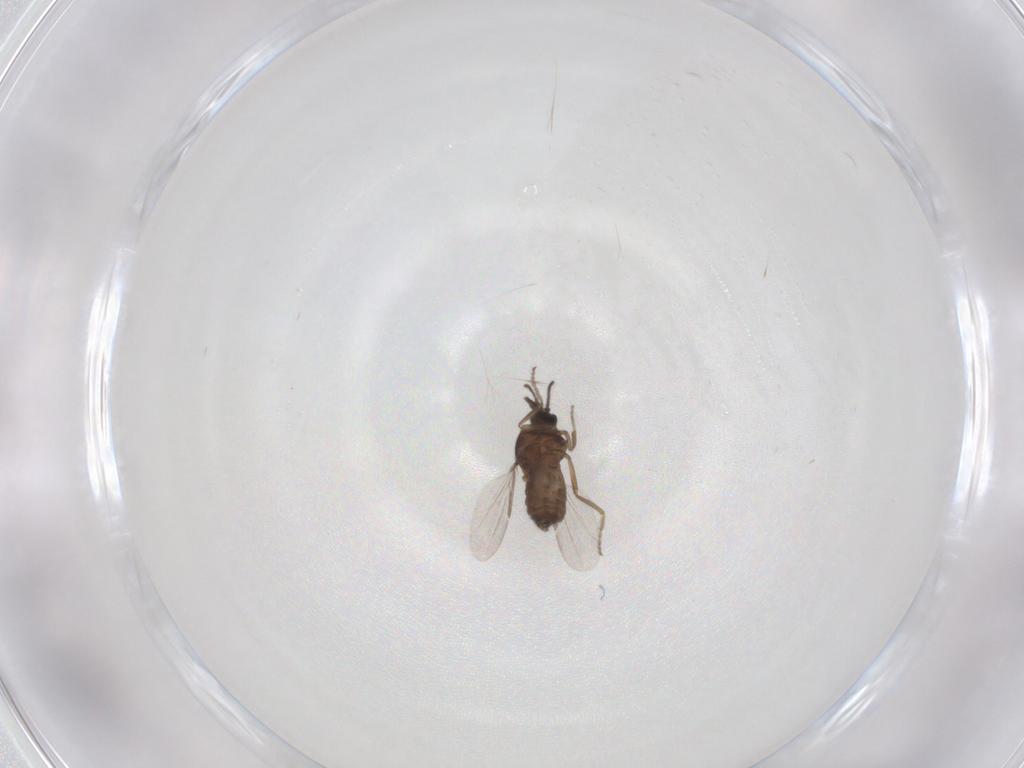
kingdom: Animalia
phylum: Arthropoda
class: Insecta
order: Diptera
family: Ceratopogonidae
